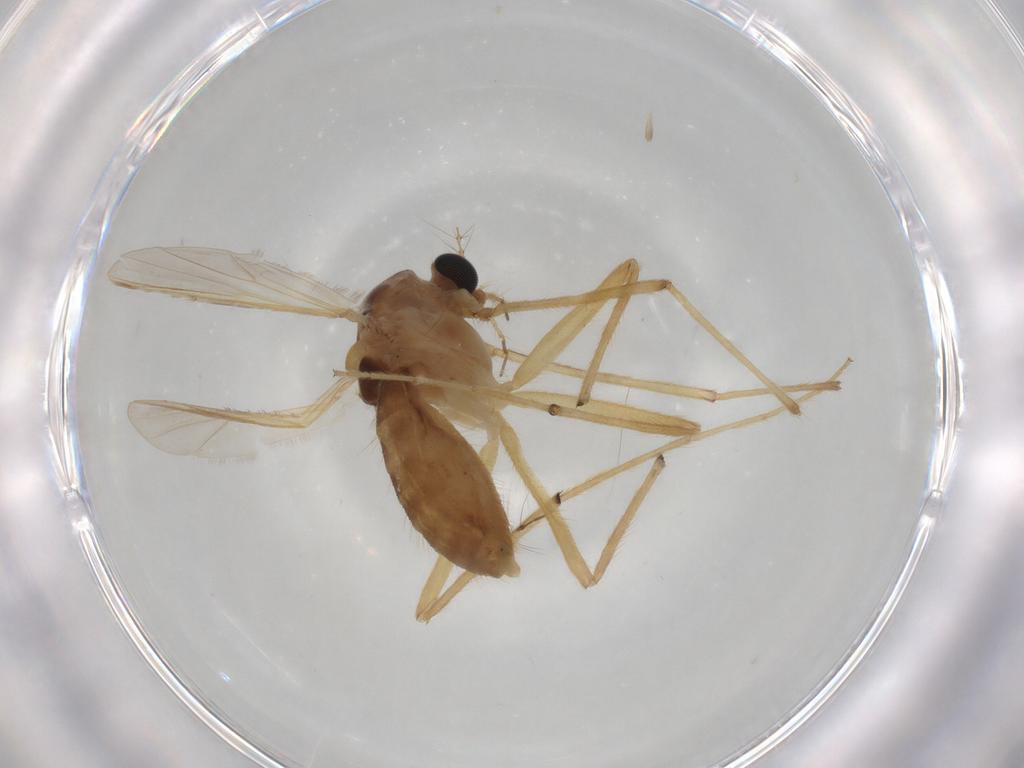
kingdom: Animalia
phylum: Arthropoda
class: Insecta
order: Diptera
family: Chironomidae
